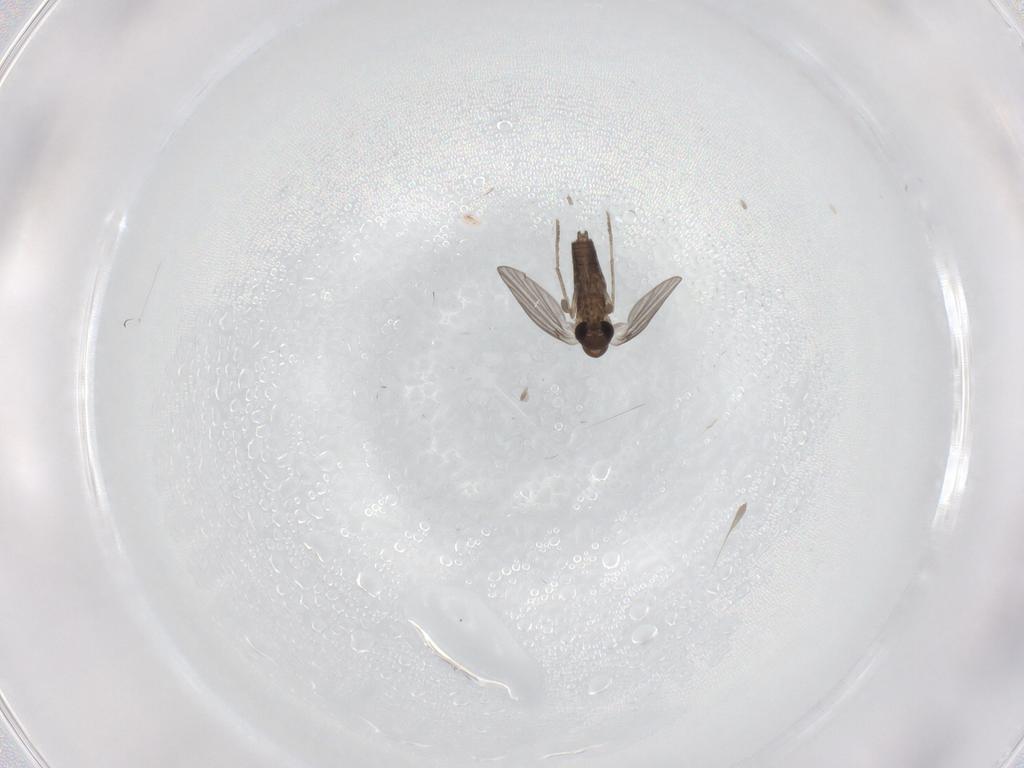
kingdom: Animalia
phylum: Arthropoda
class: Insecta
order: Diptera
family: Limoniidae
